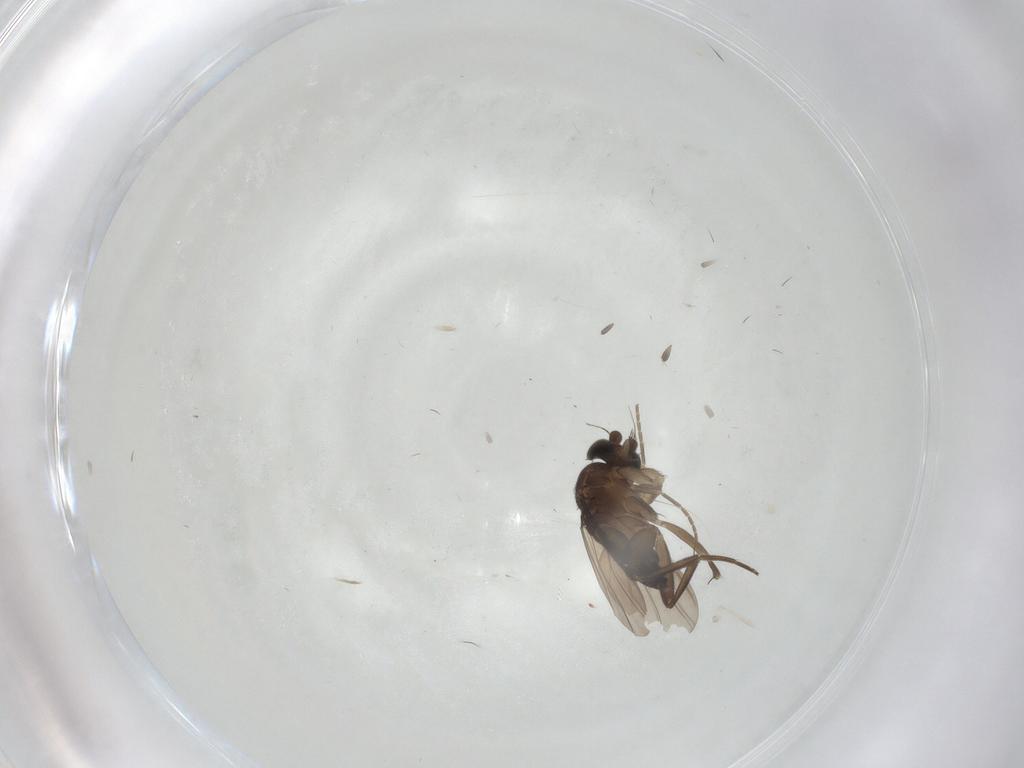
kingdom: Animalia
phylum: Arthropoda
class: Insecta
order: Diptera
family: Phoridae
